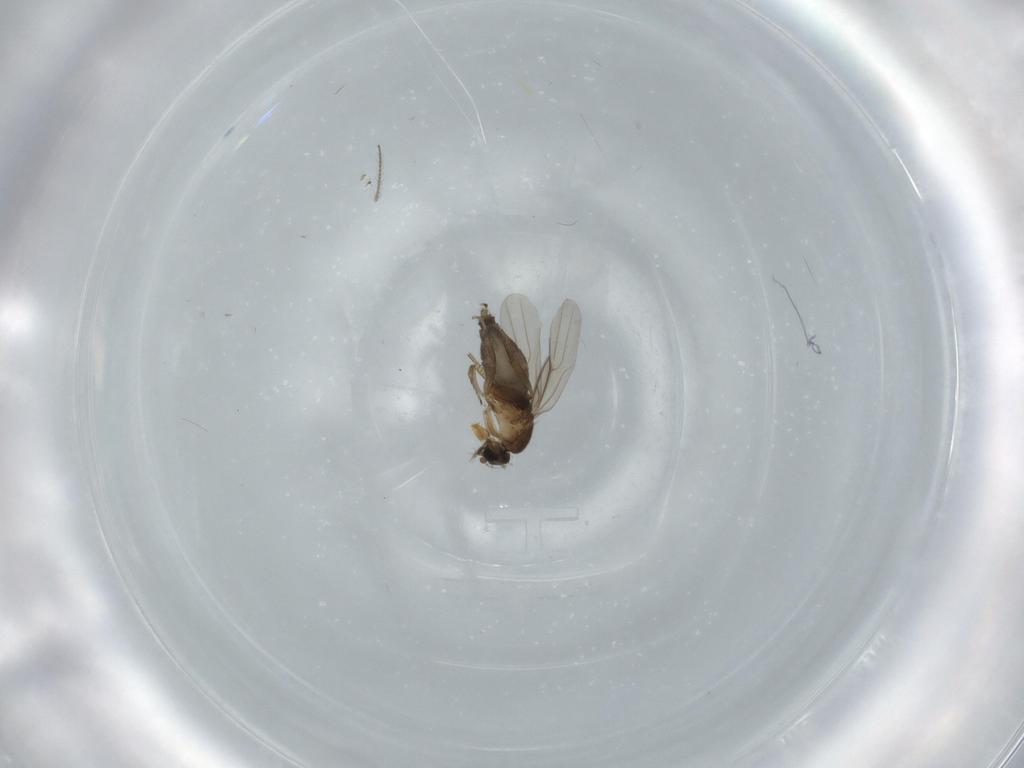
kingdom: Animalia
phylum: Arthropoda
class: Insecta
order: Diptera
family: Phoridae
